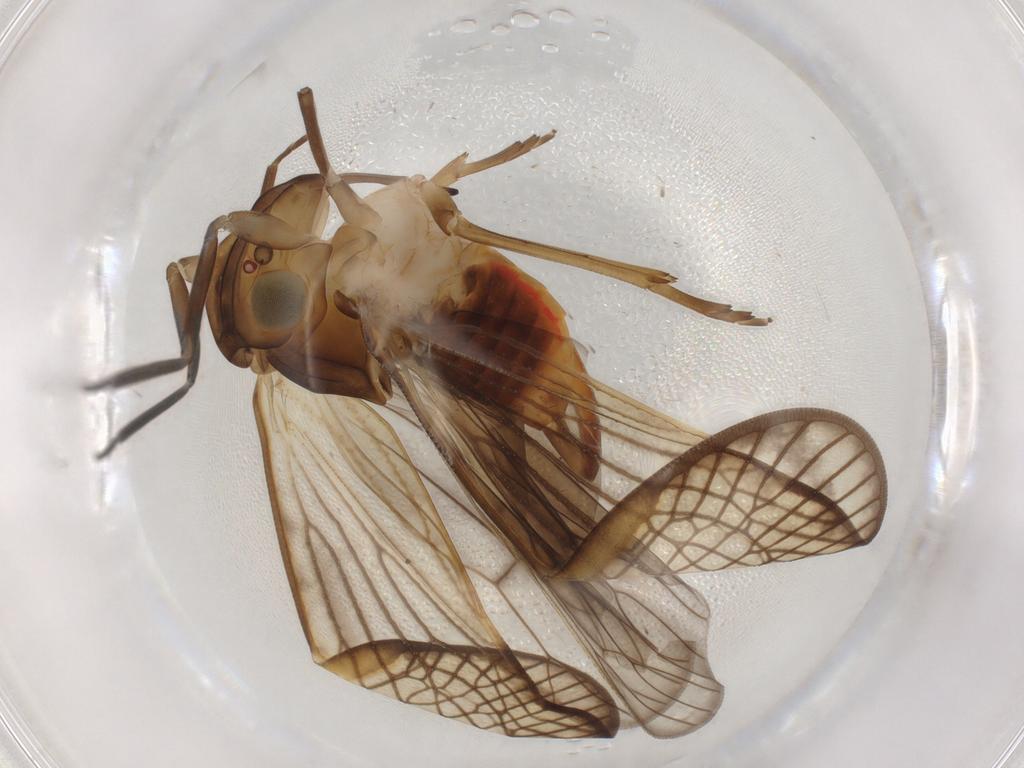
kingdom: Animalia
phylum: Arthropoda
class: Insecta
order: Hemiptera
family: Cixiidae
